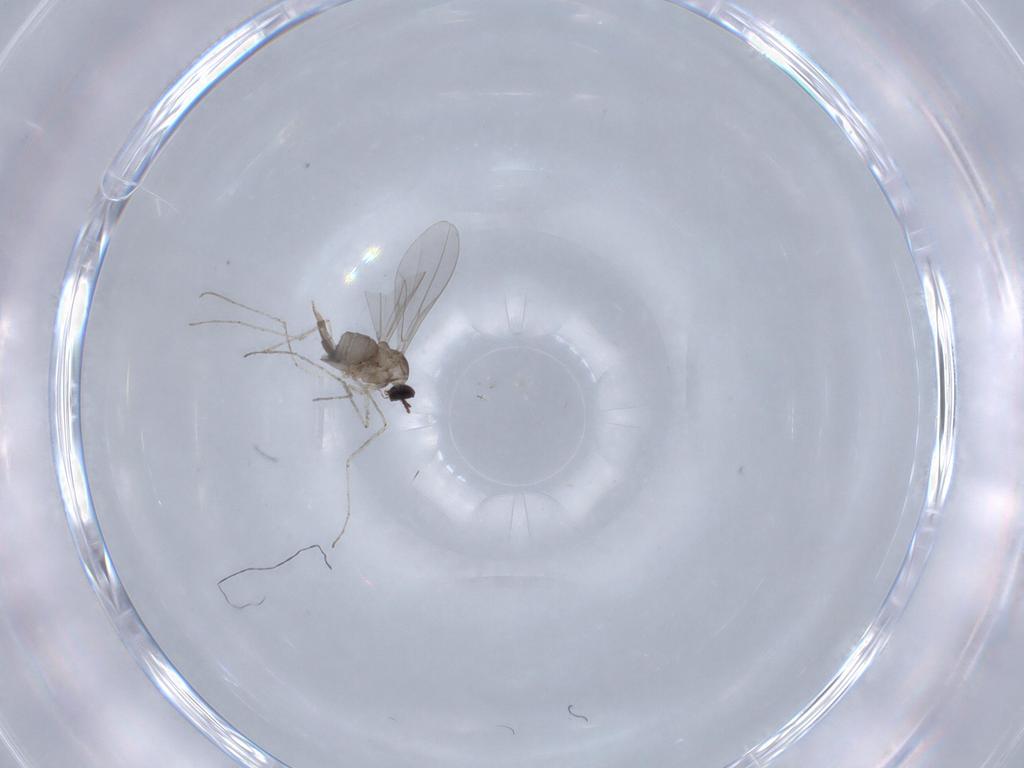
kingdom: Animalia
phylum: Arthropoda
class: Insecta
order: Diptera
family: Cecidomyiidae
